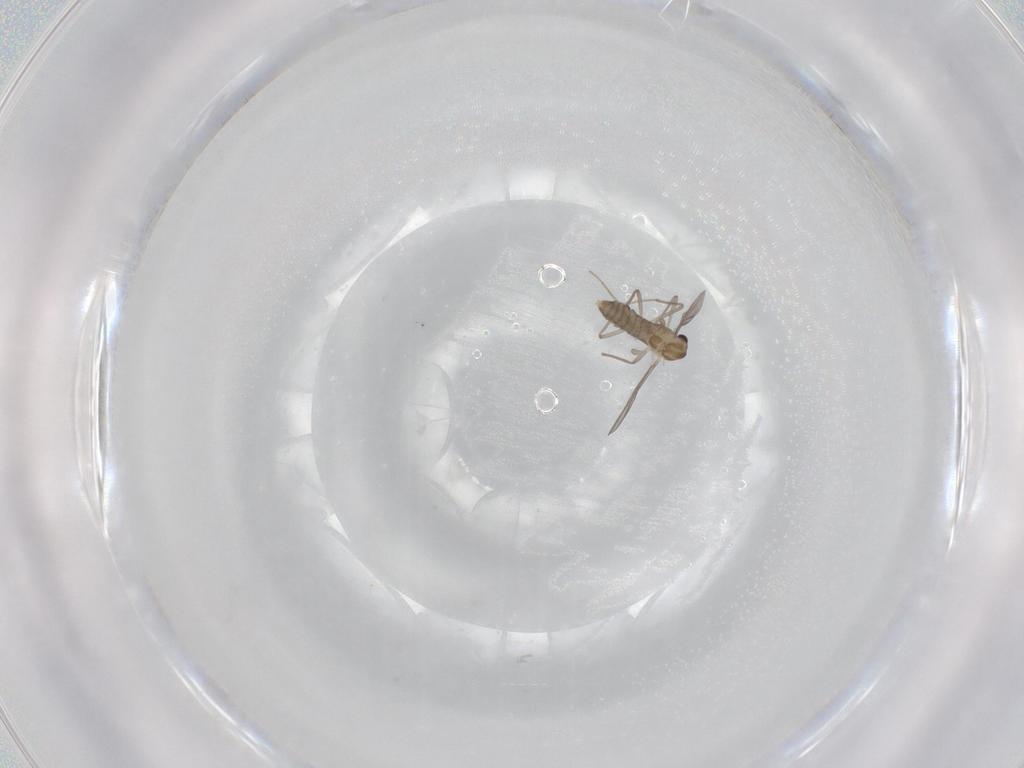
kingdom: Animalia
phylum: Arthropoda
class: Insecta
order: Diptera
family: Chironomidae
